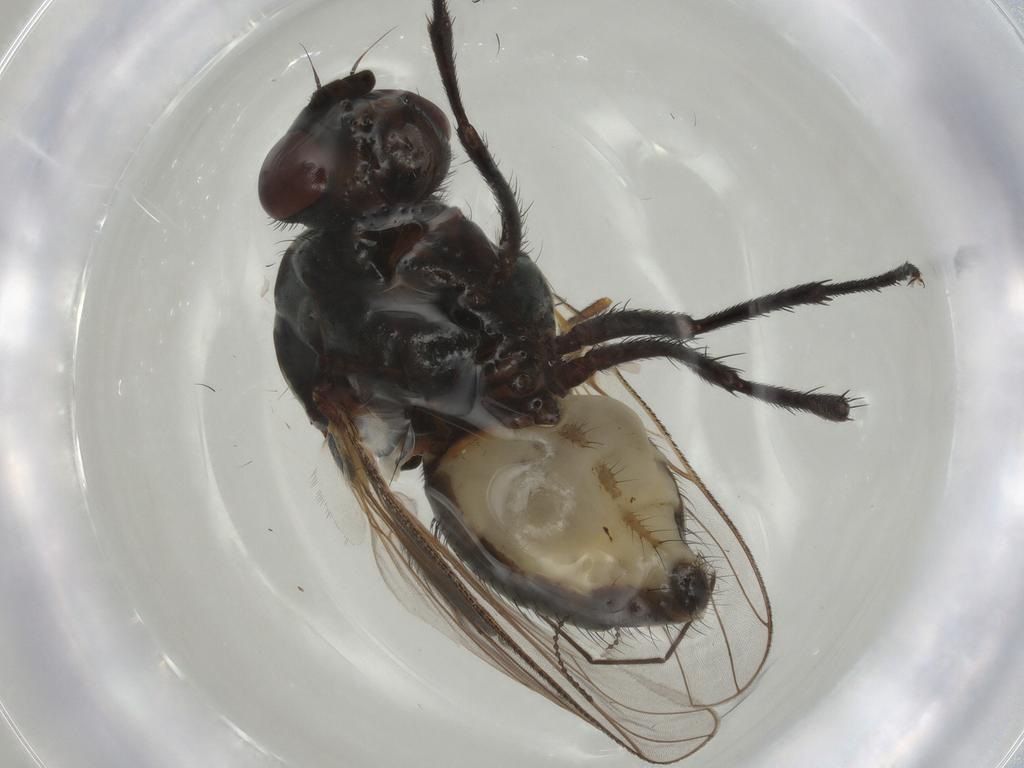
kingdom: Animalia
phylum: Arthropoda
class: Insecta
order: Diptera
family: Anthomyiidae
